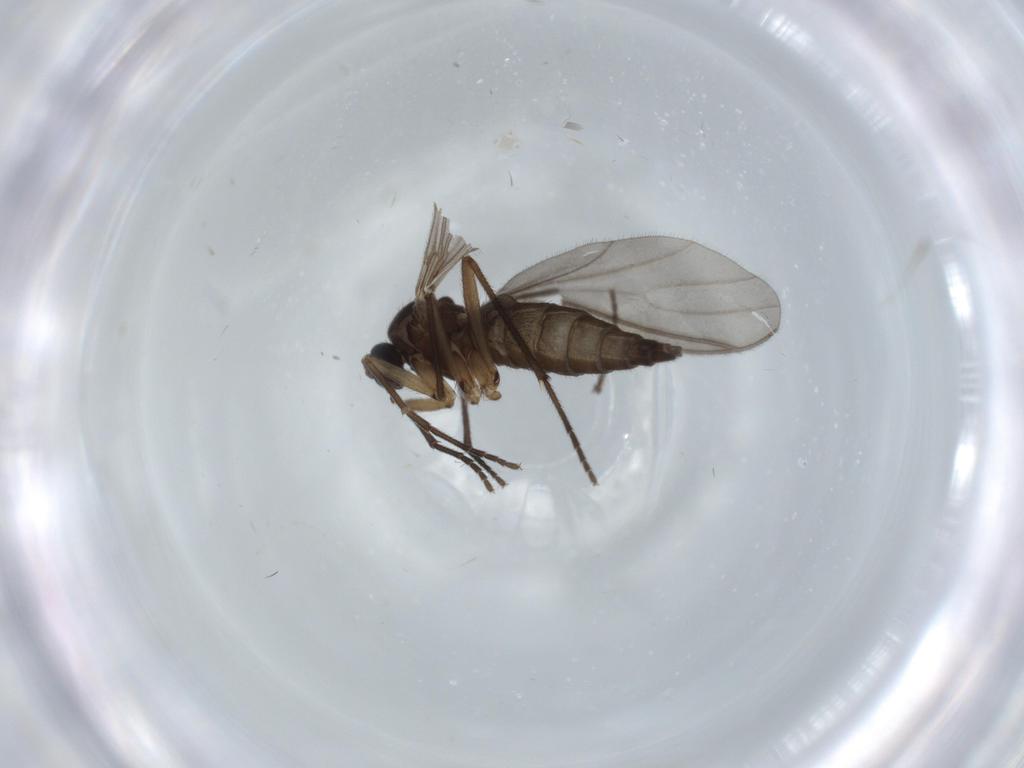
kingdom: Animalia
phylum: Arthropoda
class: Insecta
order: Diptera
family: Sciaridae
